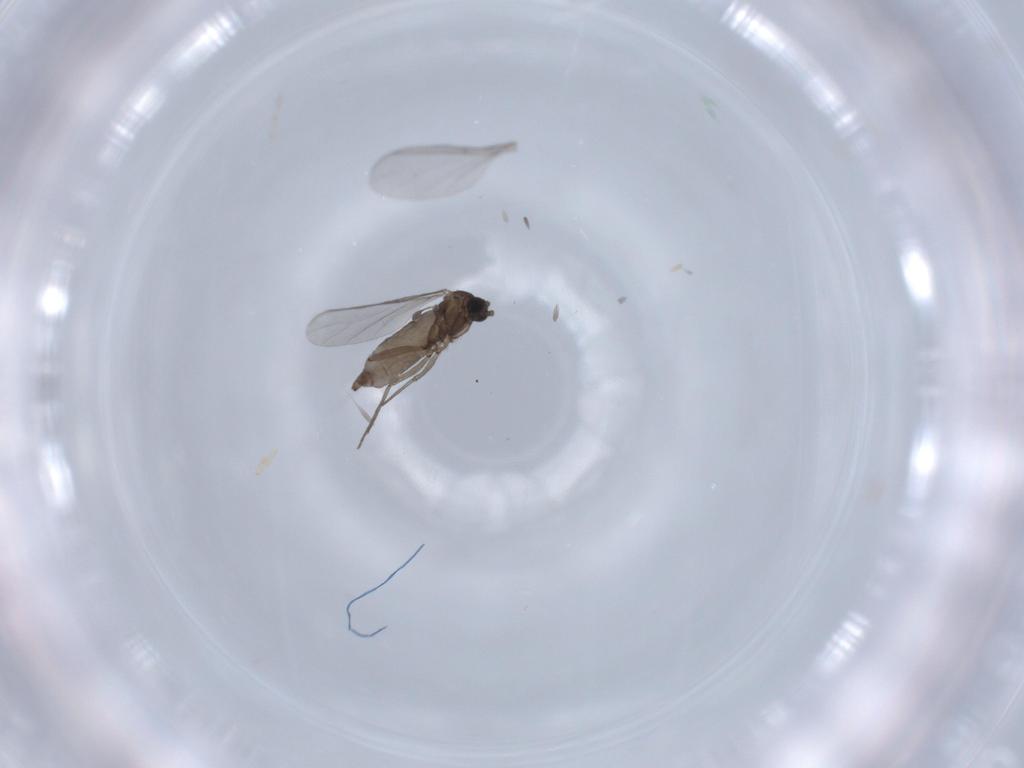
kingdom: Animalia
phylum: Arthropoda
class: Insecta
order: Diptera
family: Sciaridae
